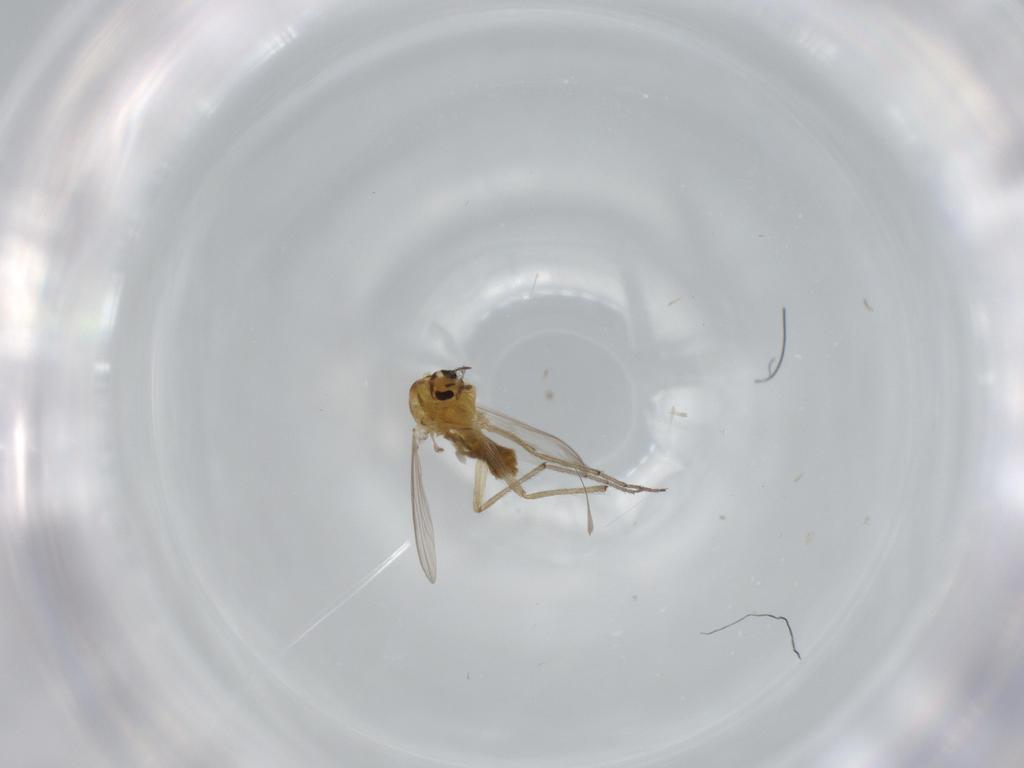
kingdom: Animalia
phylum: Arthropoda
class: Insecta
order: Diptera
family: Chironomidae
